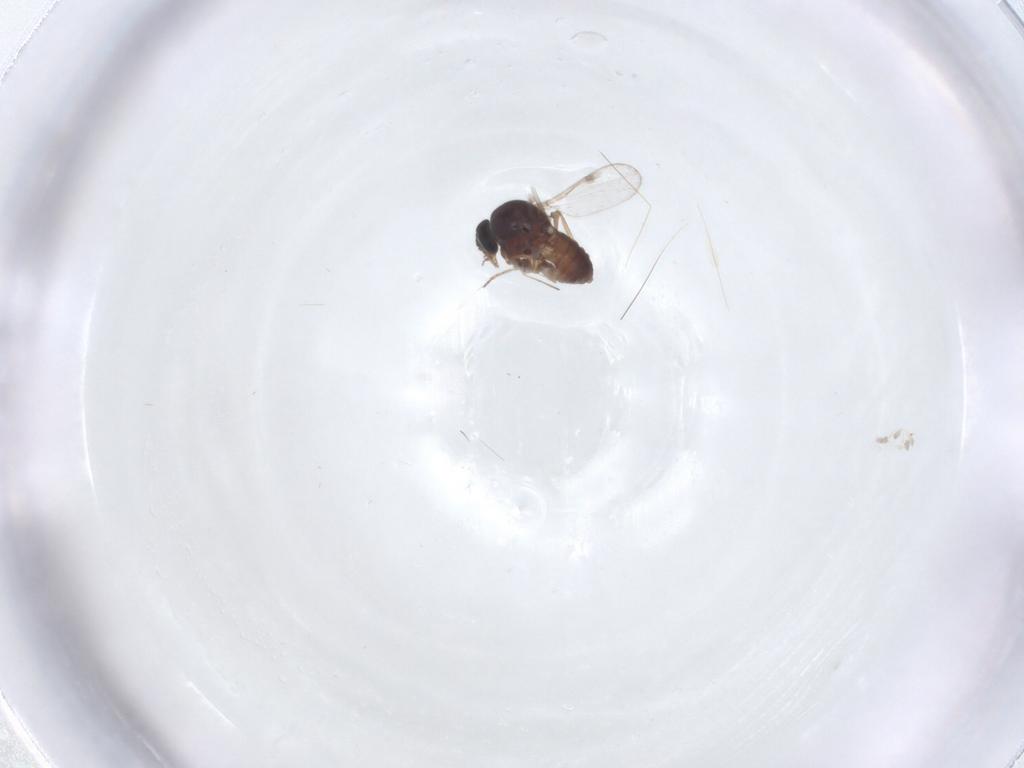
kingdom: Animalia
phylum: Arthropoda
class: Insecta
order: Diptera
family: Ceratopogonidae
